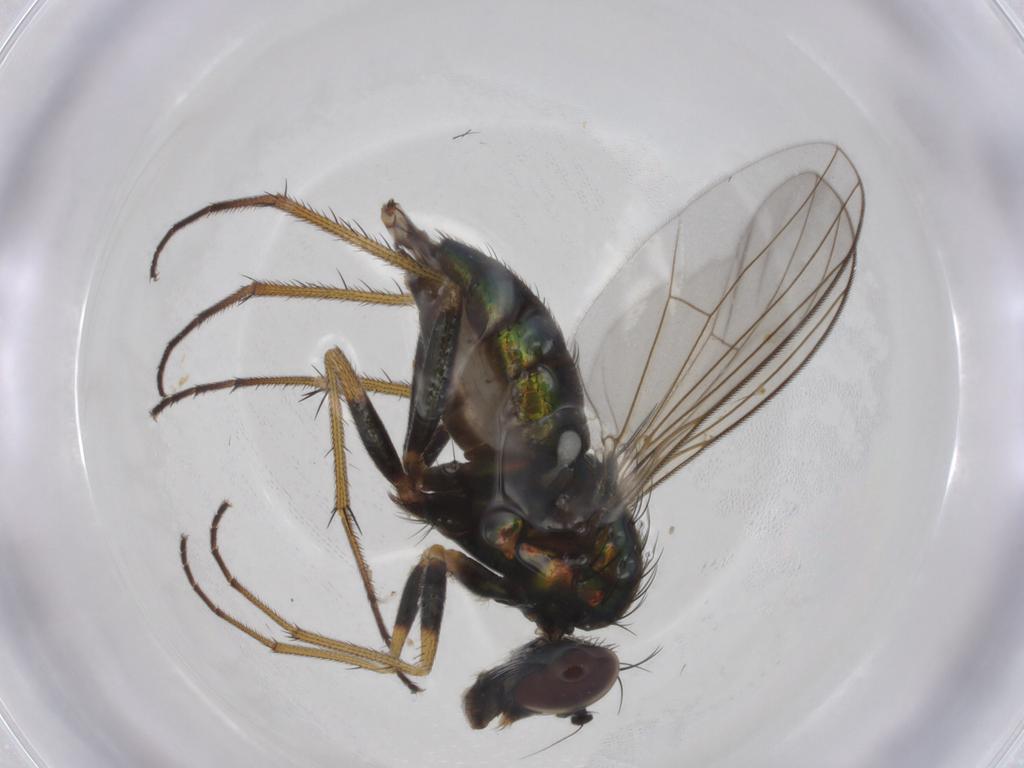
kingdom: Animalia
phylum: Arthropoda
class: Insecta
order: Diptera
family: Dolichopodidae
